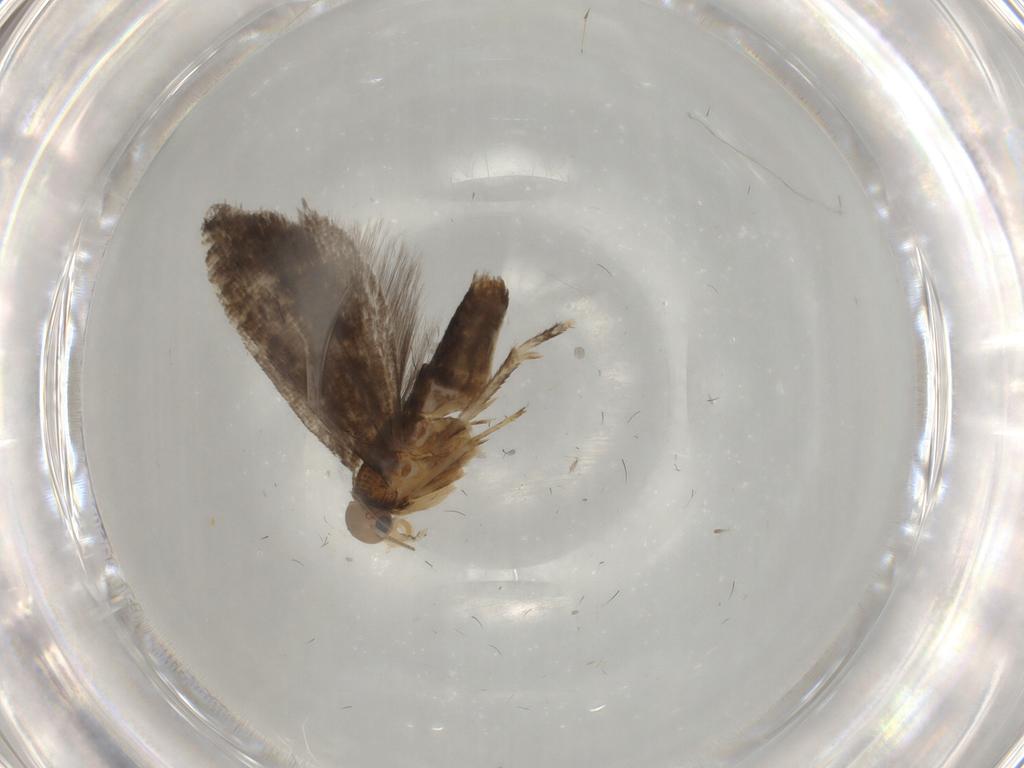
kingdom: Animalia
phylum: Arthropoda
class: Insecta
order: Lepidoptera
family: Glyphipterigidae
